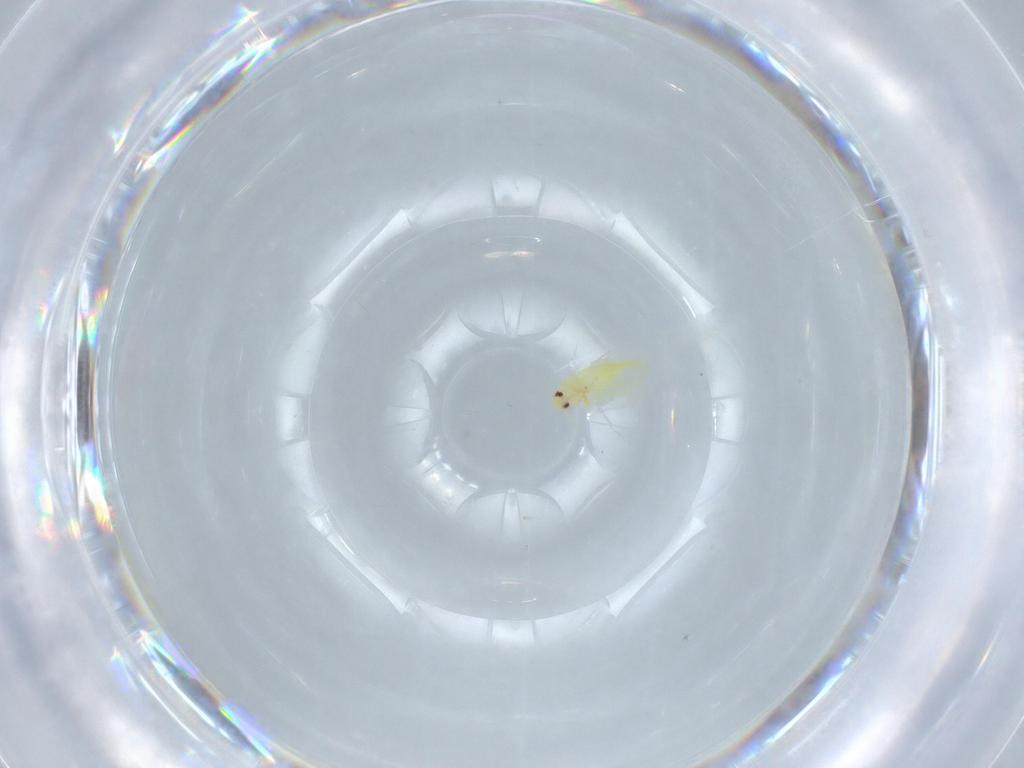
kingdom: Animalia
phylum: Arthropoda
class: Insecta
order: Hemiptera
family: Aleyrodidae
